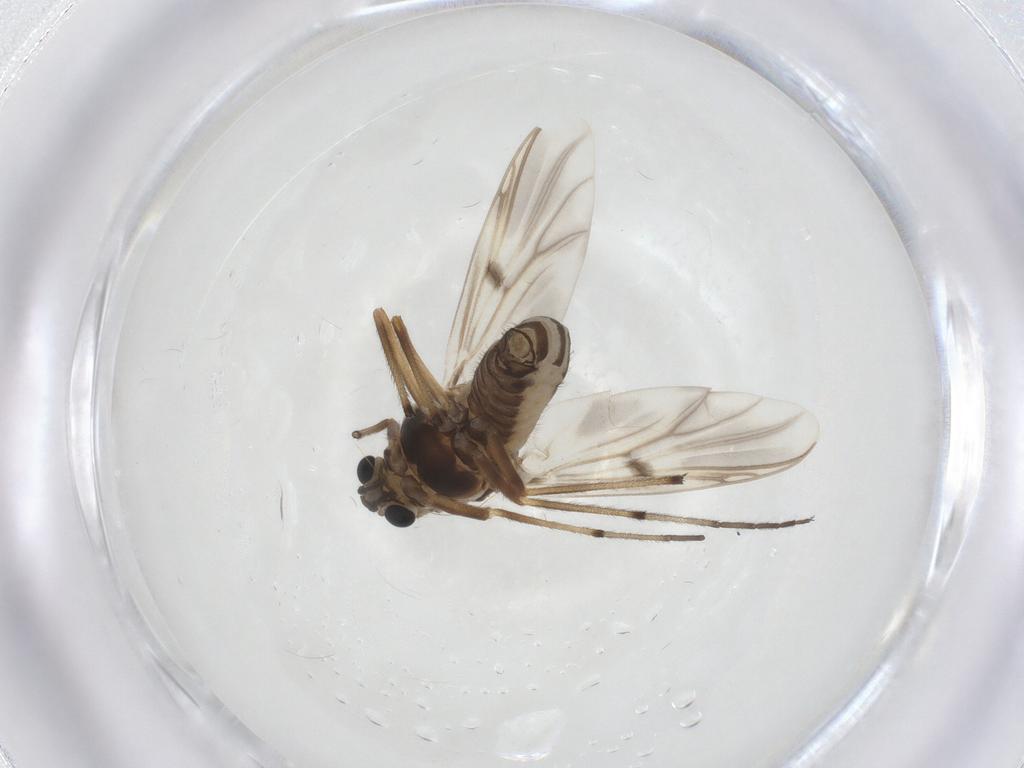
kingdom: Animalia
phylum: Arthropoda
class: Insecta
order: Diptera
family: Chironomidae
